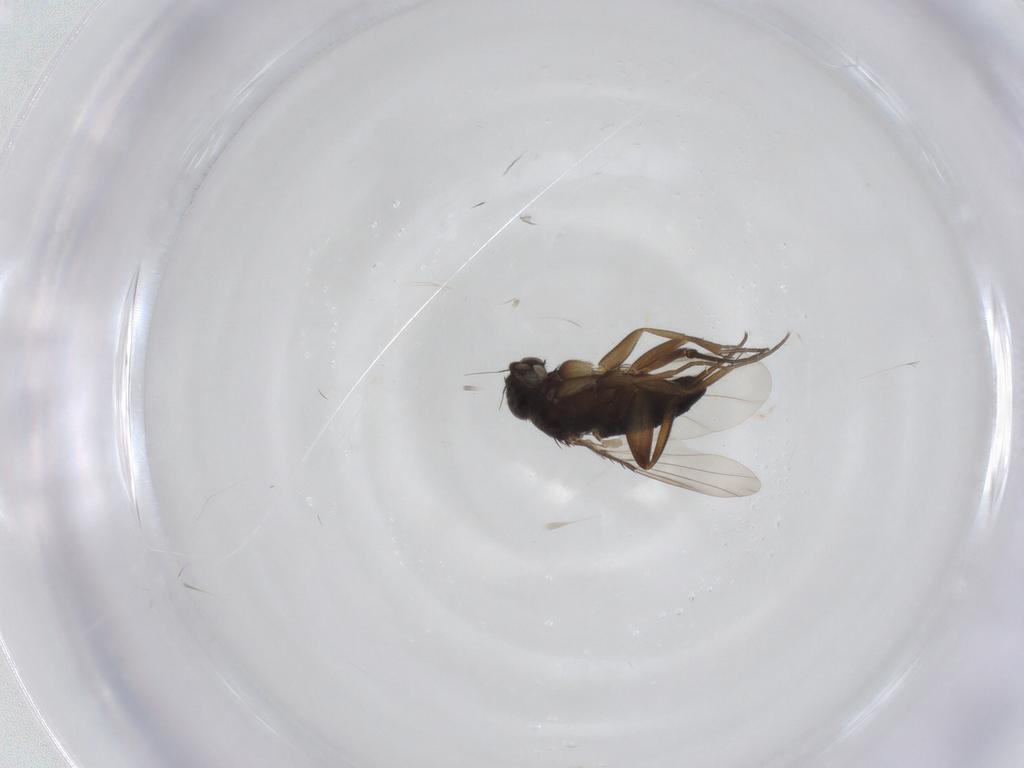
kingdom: Animalia
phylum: Arthropoda
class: Insecta
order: Diptera
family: Phoridae
